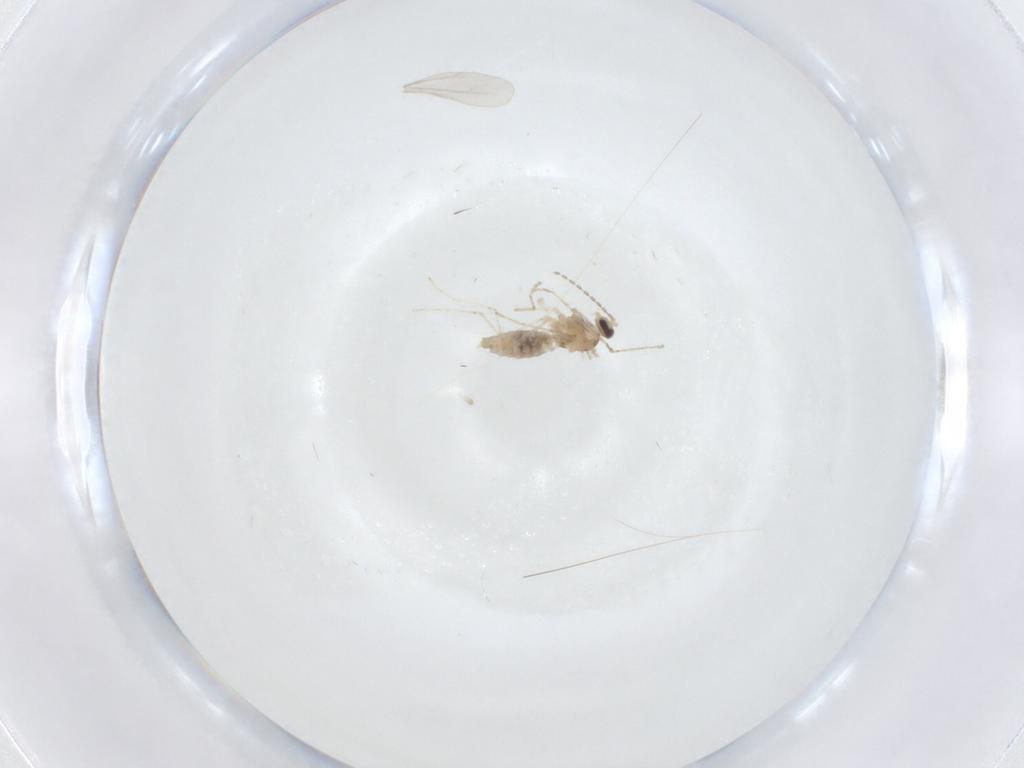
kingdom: Animalia
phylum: Arthropoda
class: Insecta
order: Diptera
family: Cecidomyiidae
